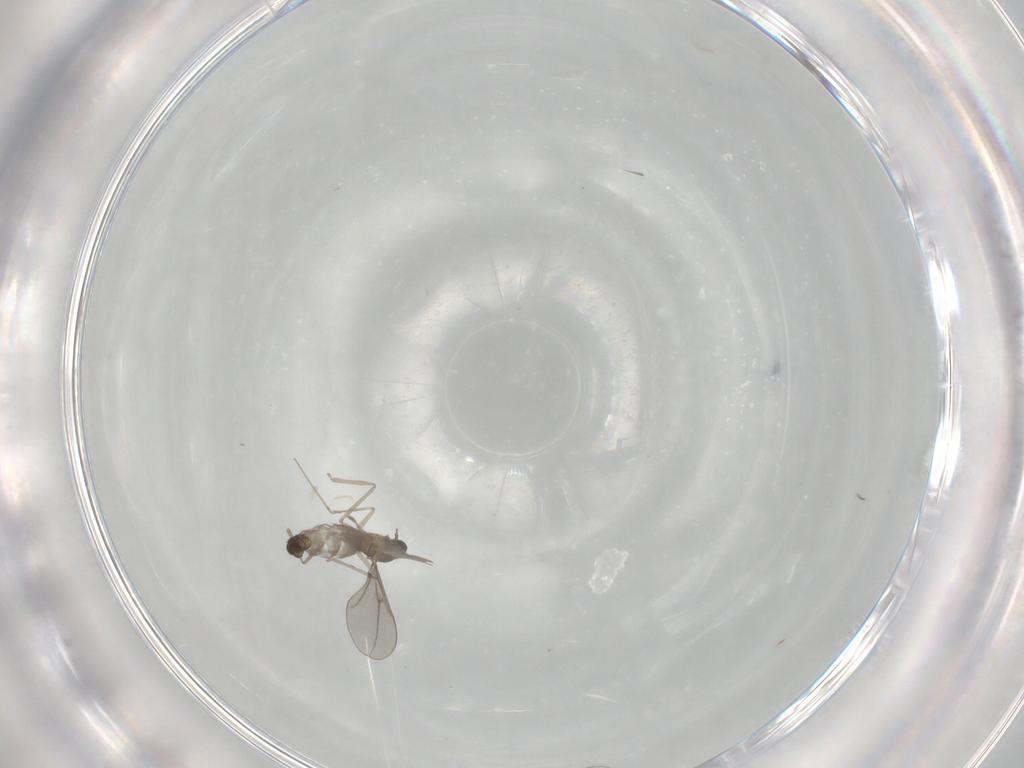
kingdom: Animalia
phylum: Arthropoda
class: Insecta
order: Diptera
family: Cecidomyiidae
